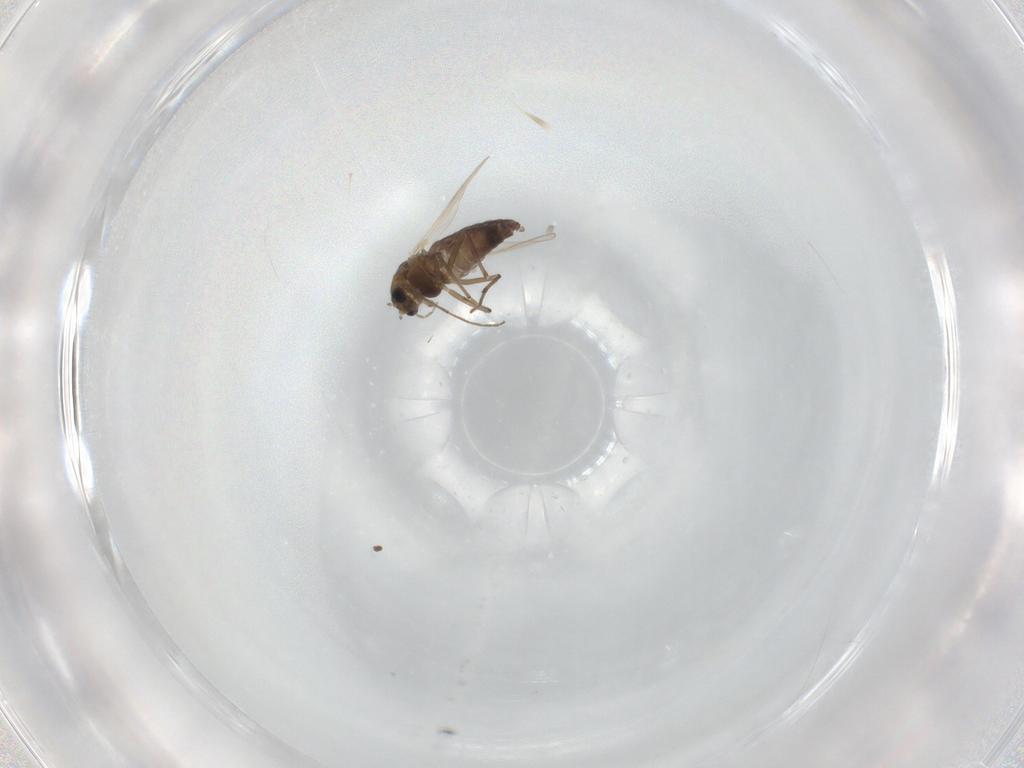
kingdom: Animalia
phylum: Arthropoda
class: Insecta
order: Diptera
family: Chironomidae
